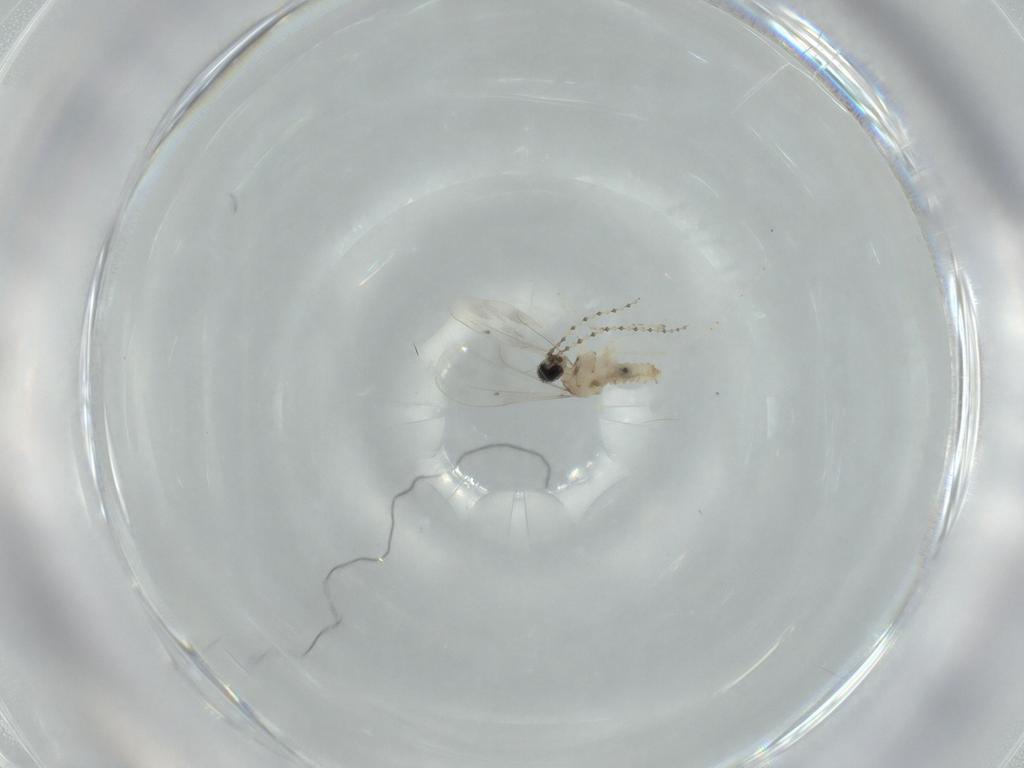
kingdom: Animalia
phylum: Arthropoda
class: Insecta
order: Diptera
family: Cecidomyiidae
